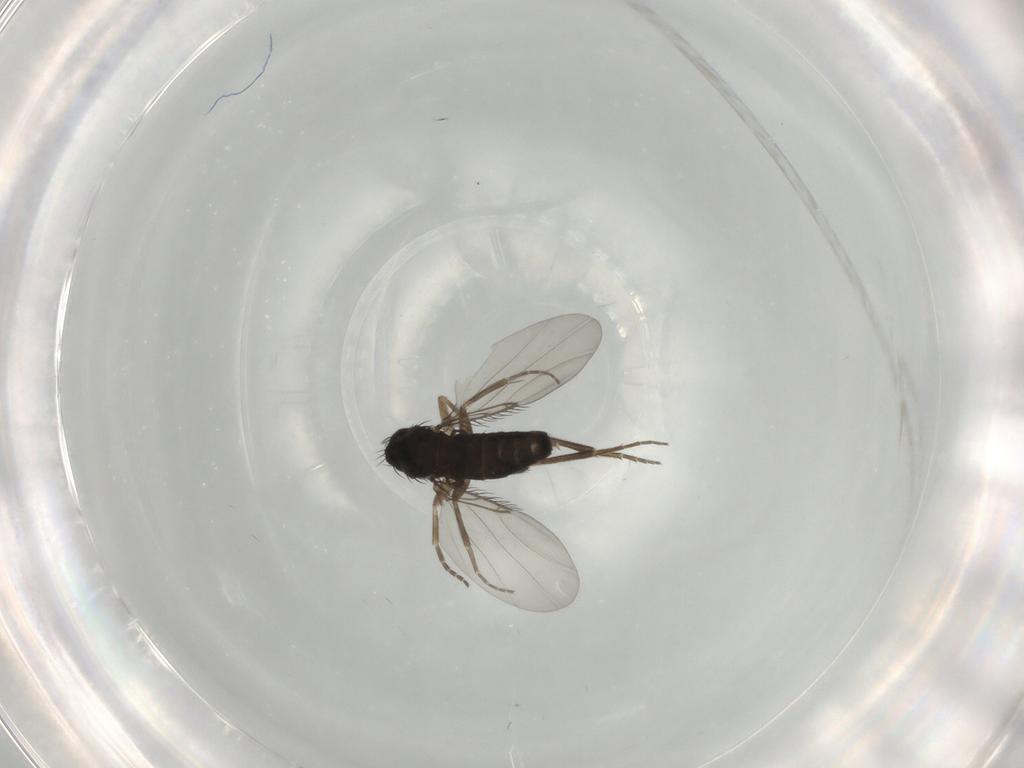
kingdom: Animalia
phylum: Arthropoda
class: Insecta
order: Diptera
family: Phoridae
